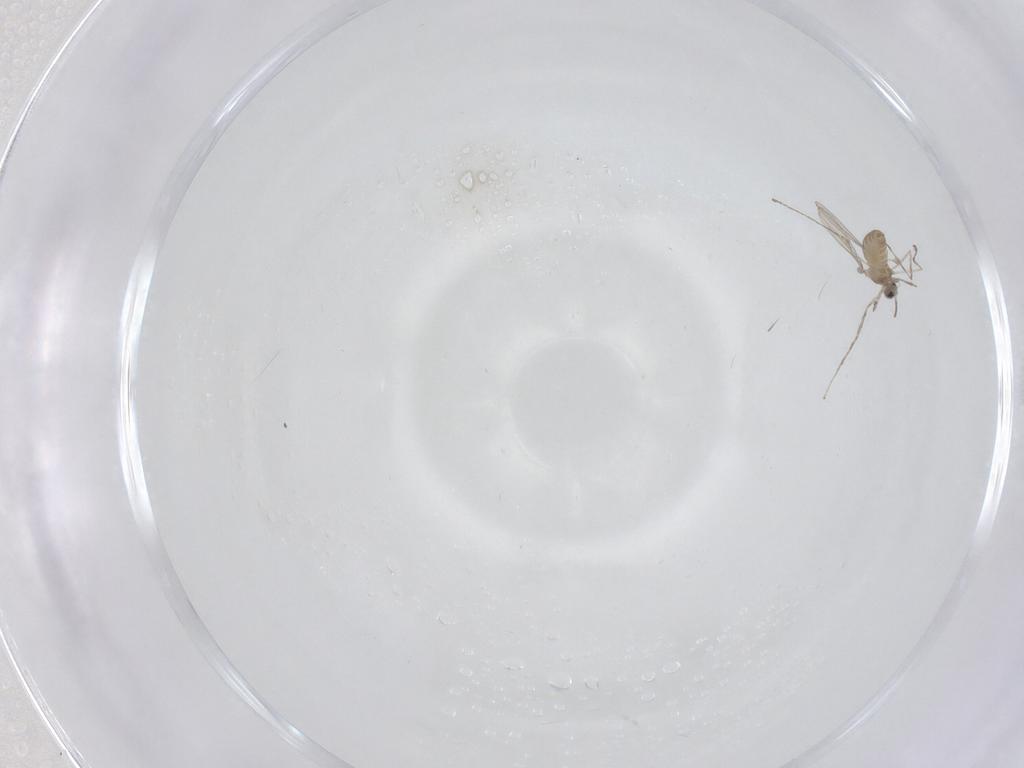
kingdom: Animalia
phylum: Arthropoda
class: Insecta
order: Diptera
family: Cecidomyiidae
